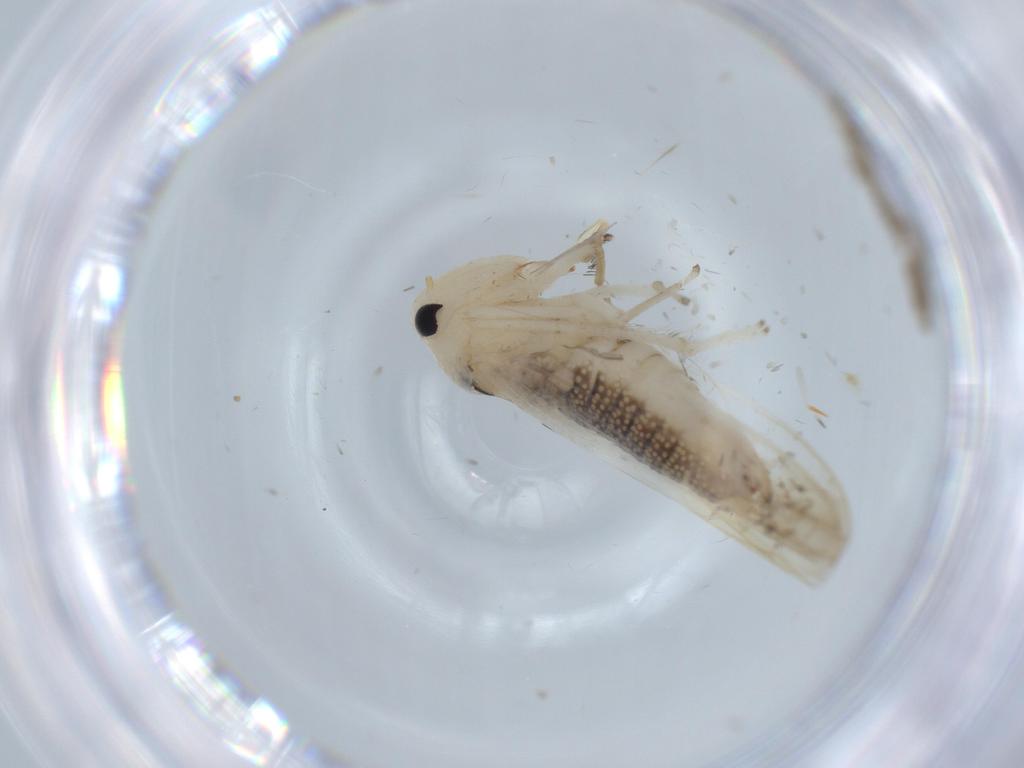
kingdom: Animalia
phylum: Arthropoda
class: Insecta
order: Hemiptera
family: Cicadellidae
